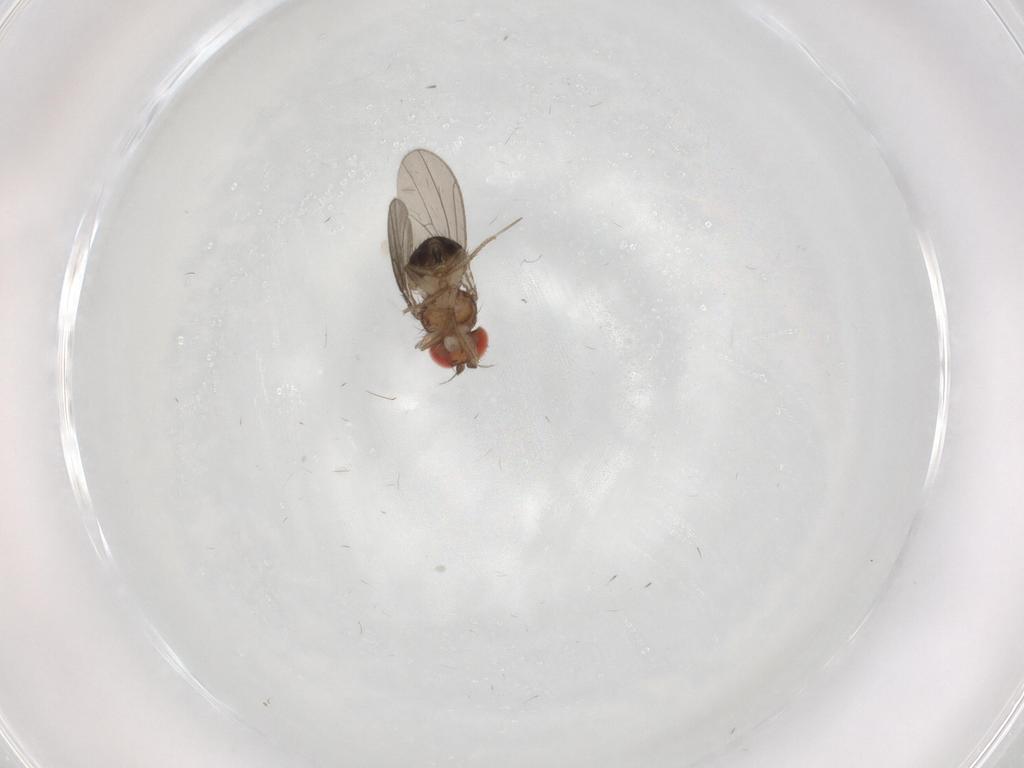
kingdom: Animalia
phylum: Arthropoda
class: Insecta
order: Diptera
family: Drosophilidae
